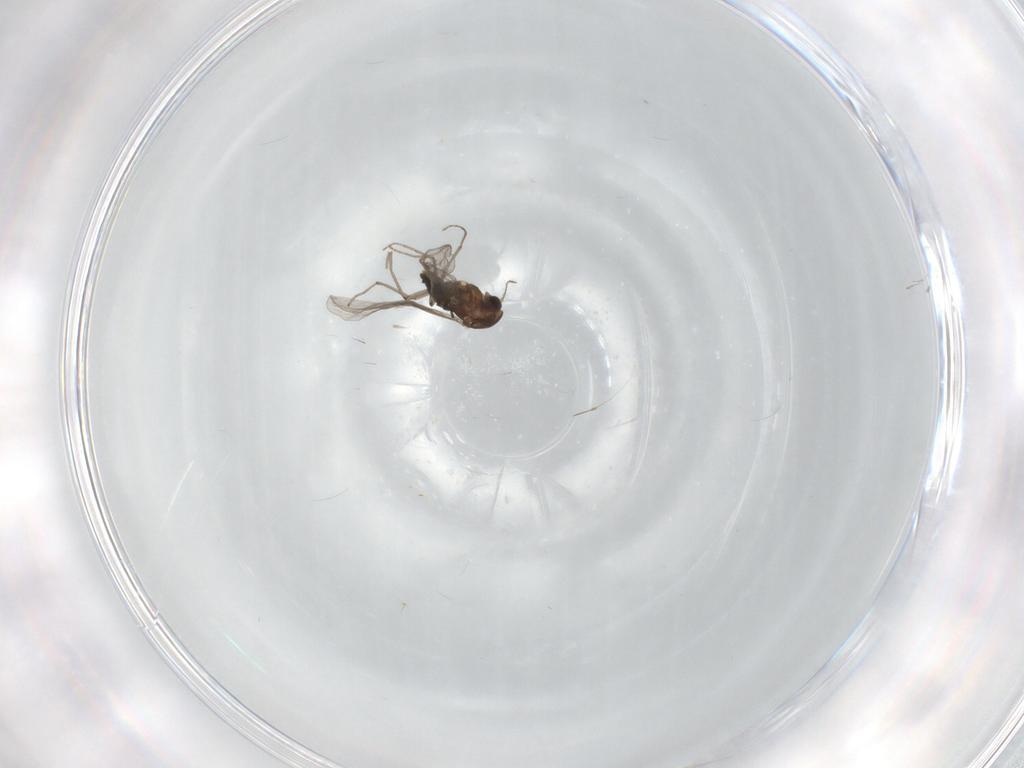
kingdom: Animalia
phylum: Arthropoda
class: Insecta
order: Diptera
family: Chironomidae
